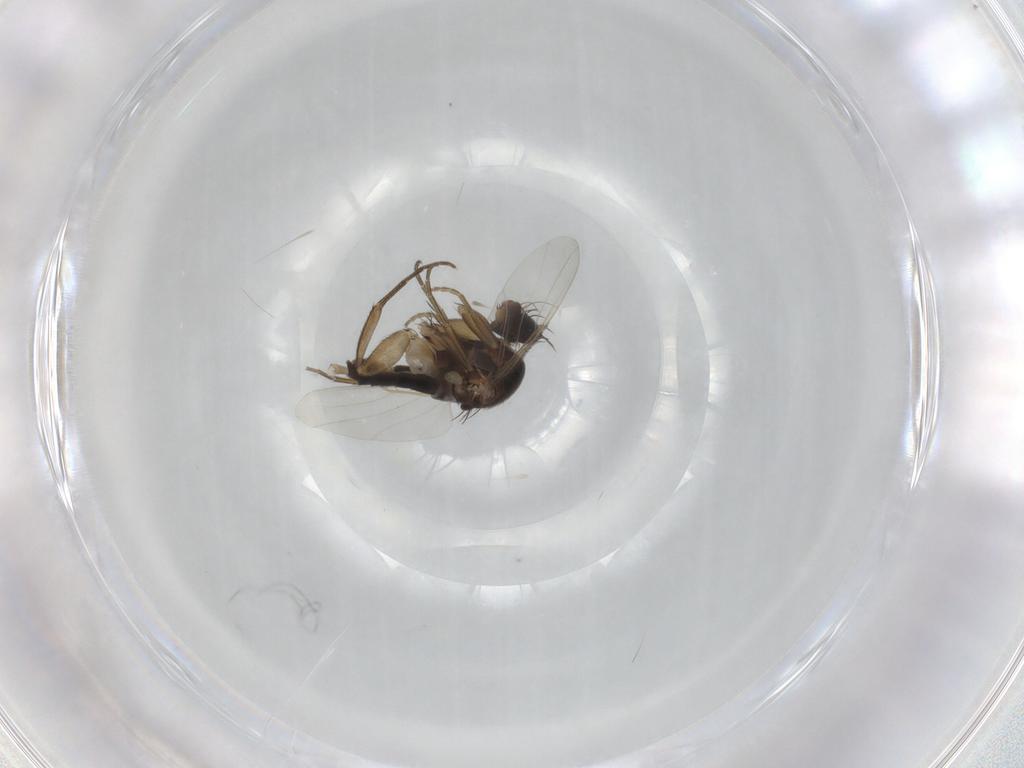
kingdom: Animalia
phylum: Arthropoda
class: Insecta
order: Diptera
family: Phoridae
